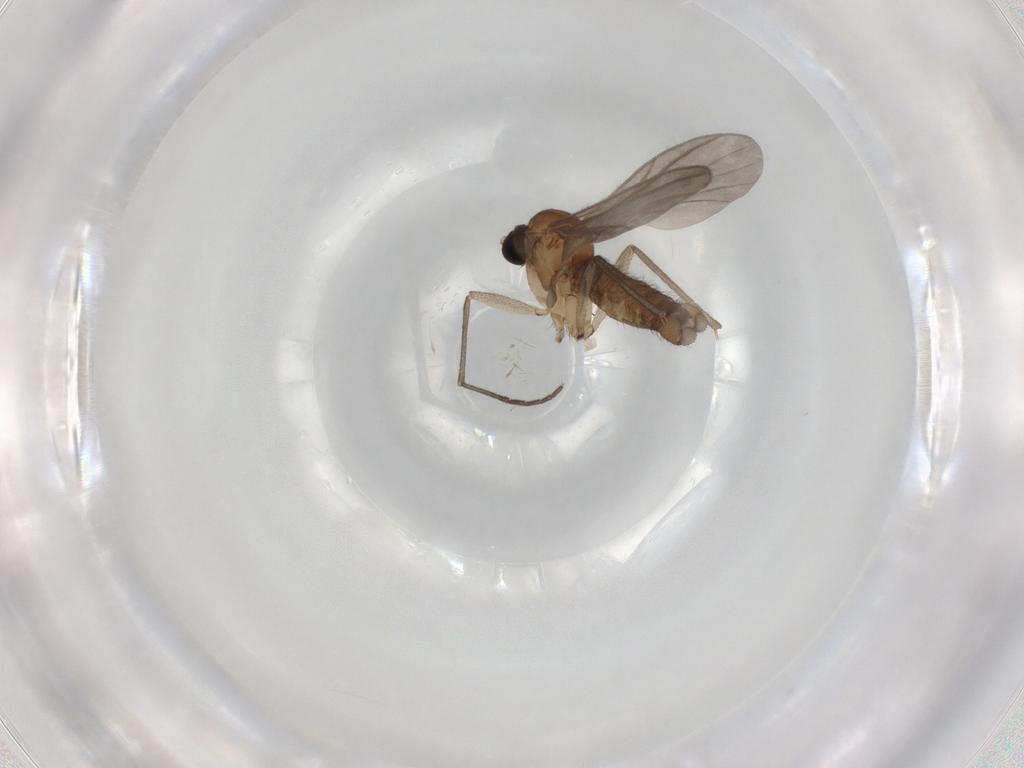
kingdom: Animalia
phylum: Arthropoda
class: Insecta
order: Diptera
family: Sciaridae
